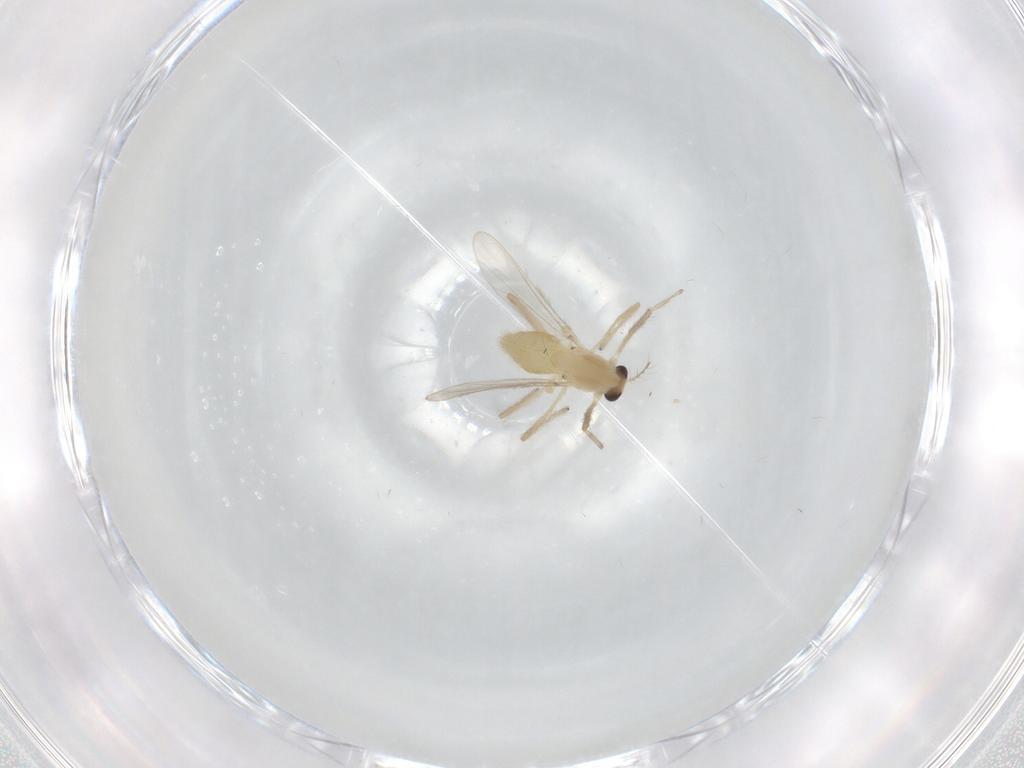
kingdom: Animalia
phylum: Arthropoda
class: Insecta
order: Diptera
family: Chironomidae
